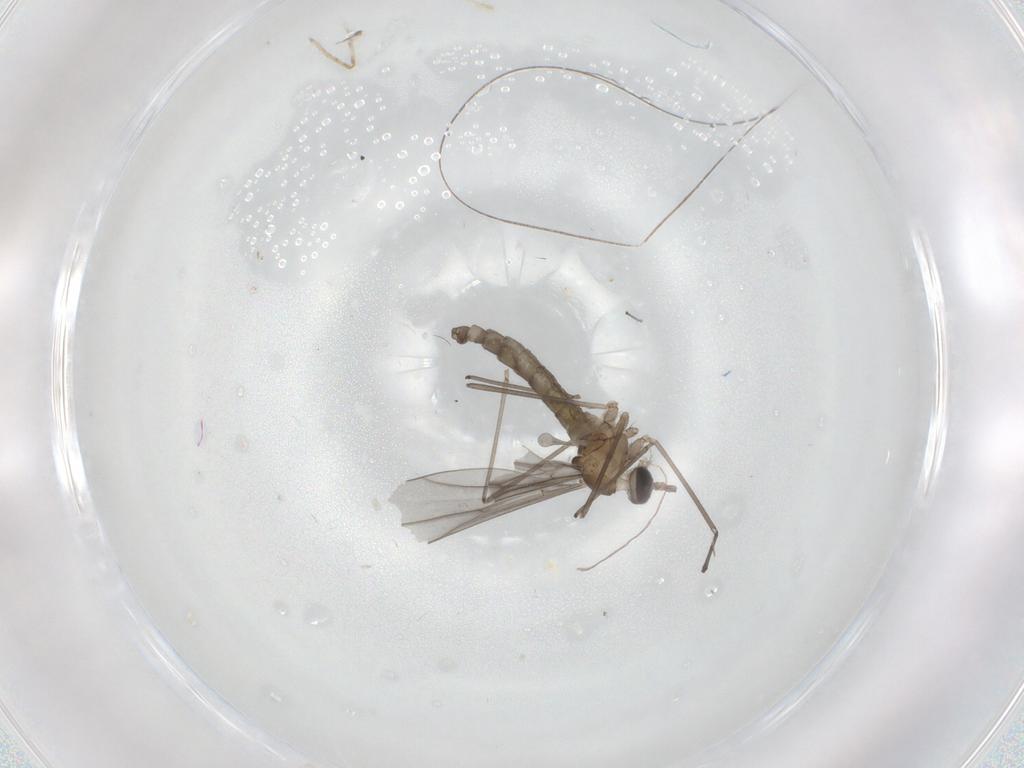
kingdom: Animalia
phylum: Arthropoda
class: Insecta
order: Diptera
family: Cecidomyiidae
